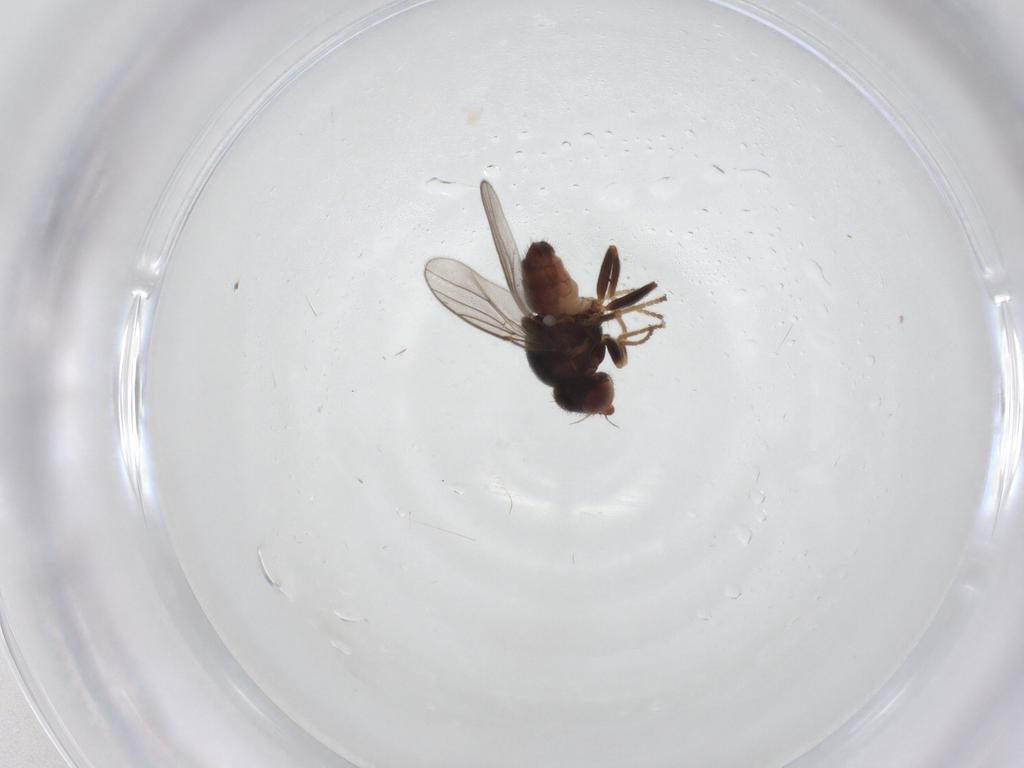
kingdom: Animalia
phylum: Arthropoda
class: Insecta
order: Diptera
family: Chloropidae
